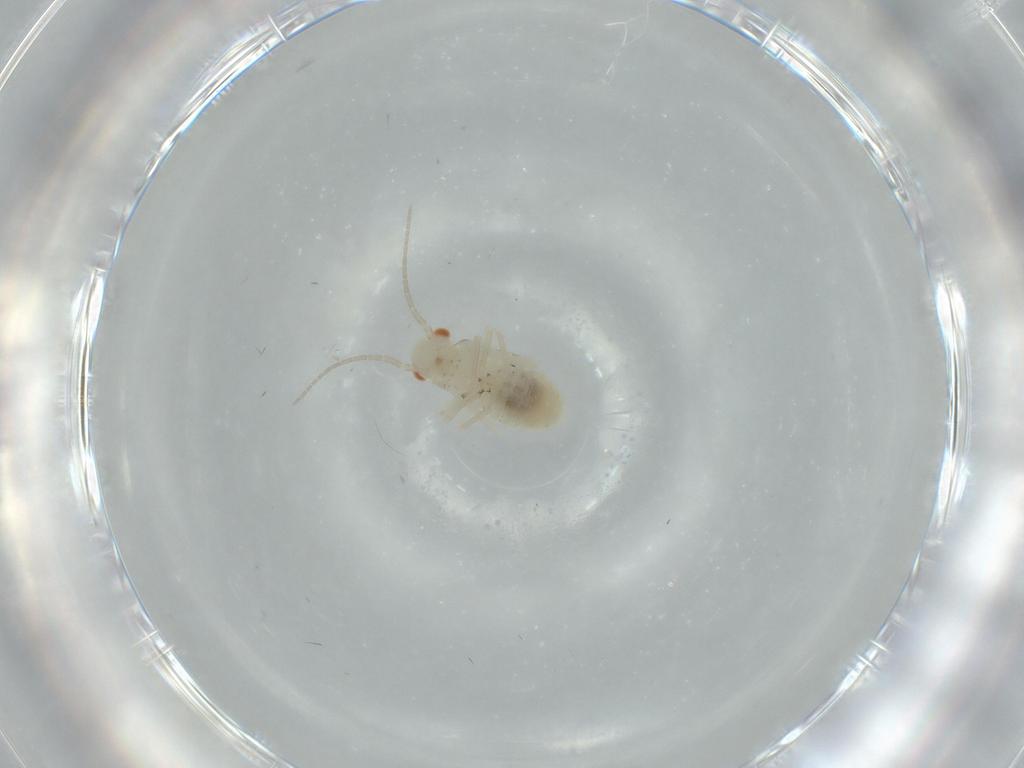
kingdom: Animalia
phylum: Arthropoda
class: Insecta
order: Psocodea
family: Caeciliusidae
